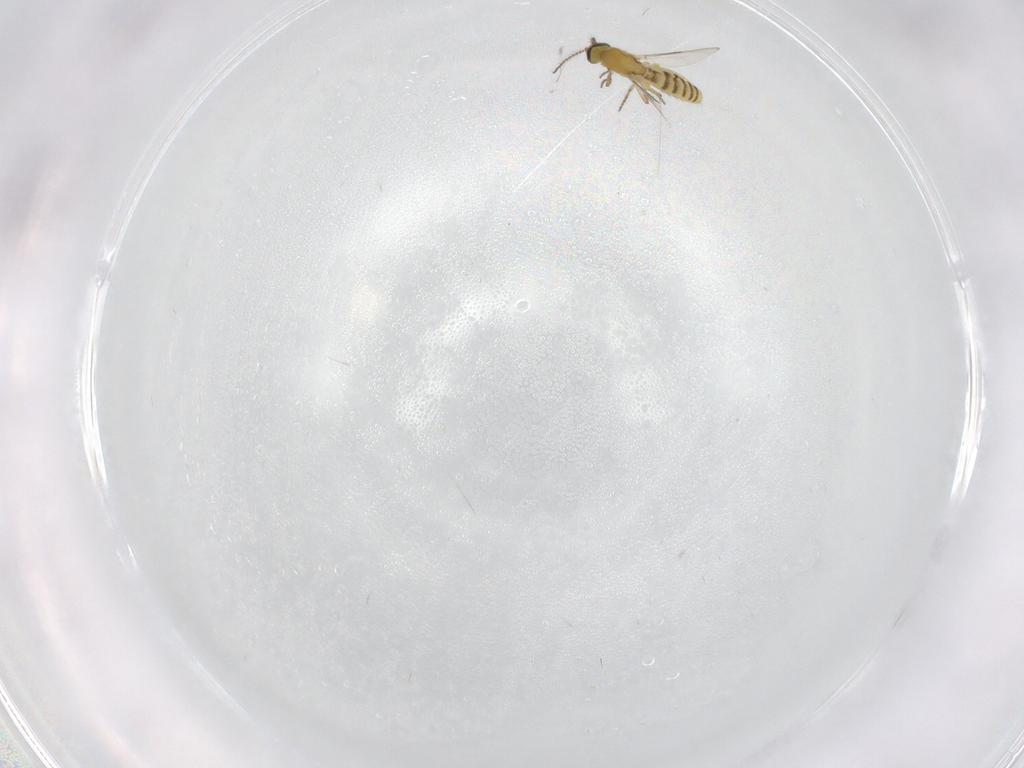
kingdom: Animalia
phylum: Arthropoda
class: Insecta
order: Diptera
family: Ceratopogonidae
